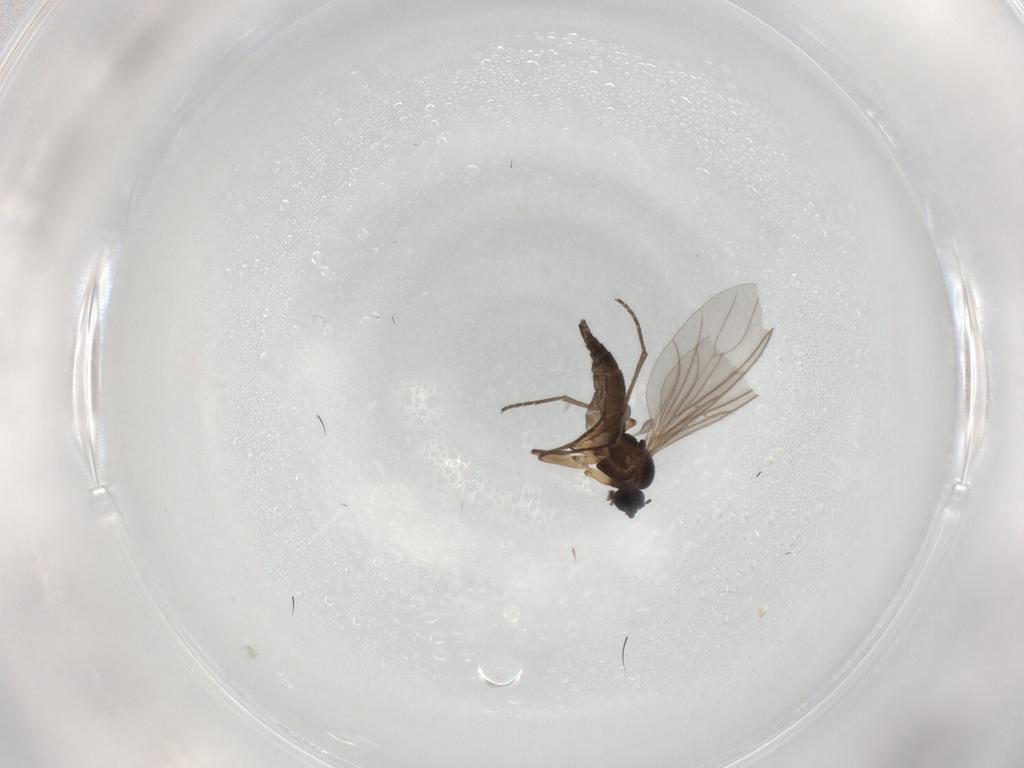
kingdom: Animalia
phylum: Arthropoda
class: Insecta
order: Diptera
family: Sciaridae
